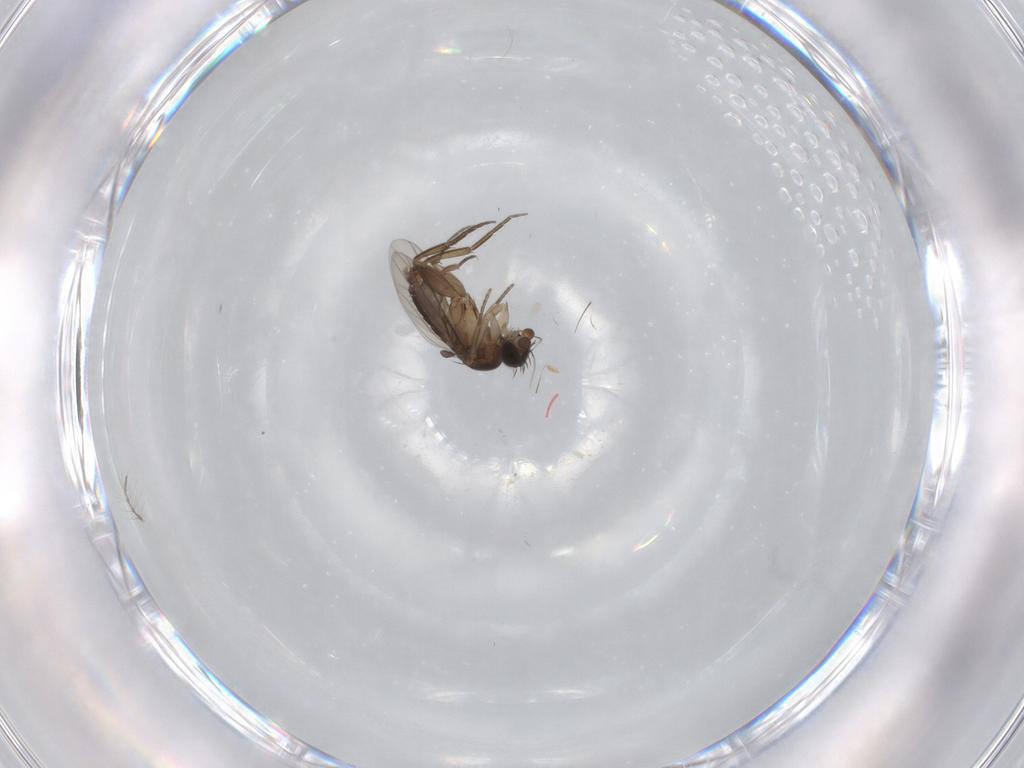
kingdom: Animalia
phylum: Arthropoda
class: Insecta
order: Diptera
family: Phoridae
